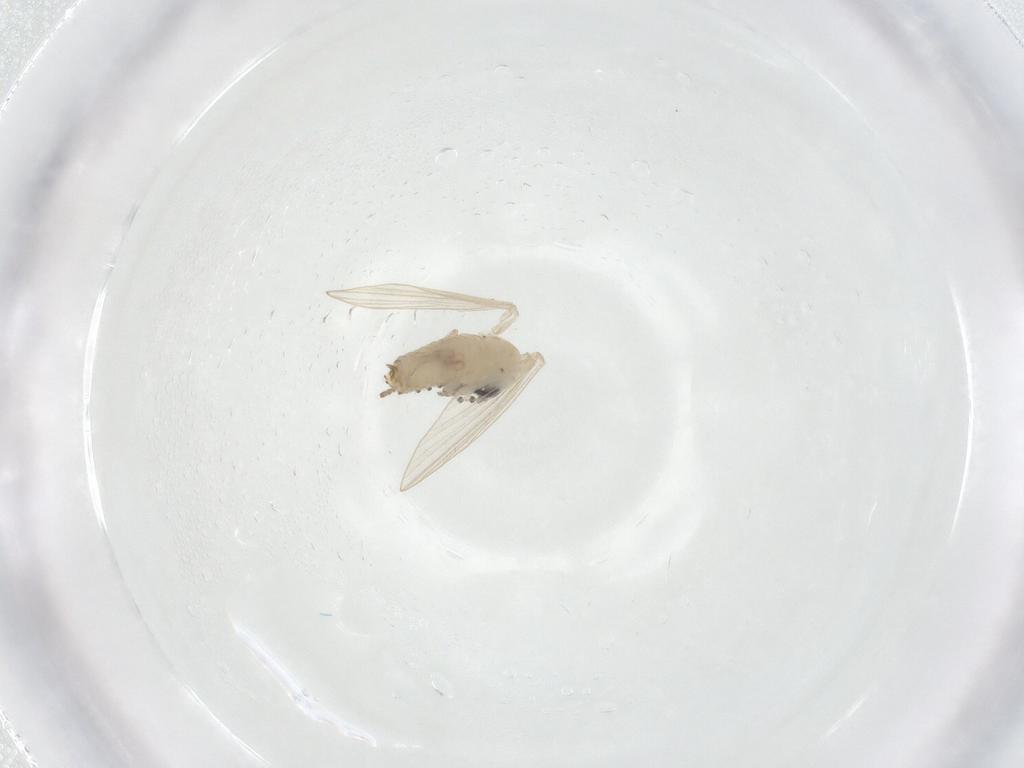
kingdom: Animalia
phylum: Arthropoda
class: Insecta
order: Diptera
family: Psychodidae
